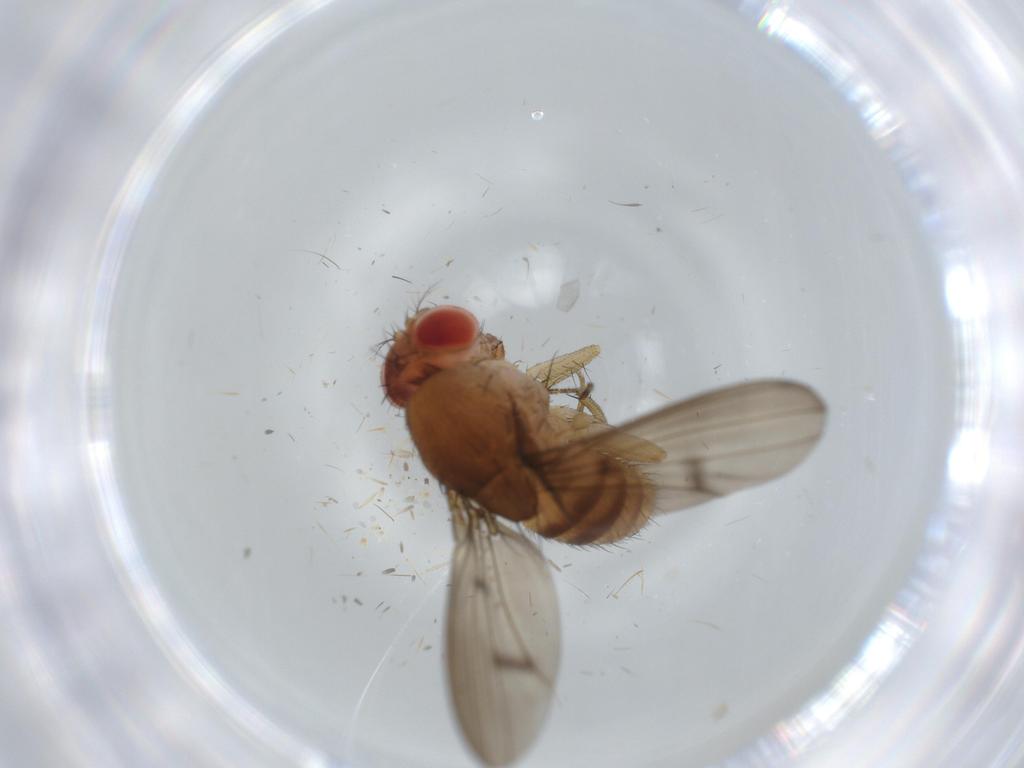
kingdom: Animalia
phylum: Arthropoda
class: Insecta
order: Diptera
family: Drosophilidae
